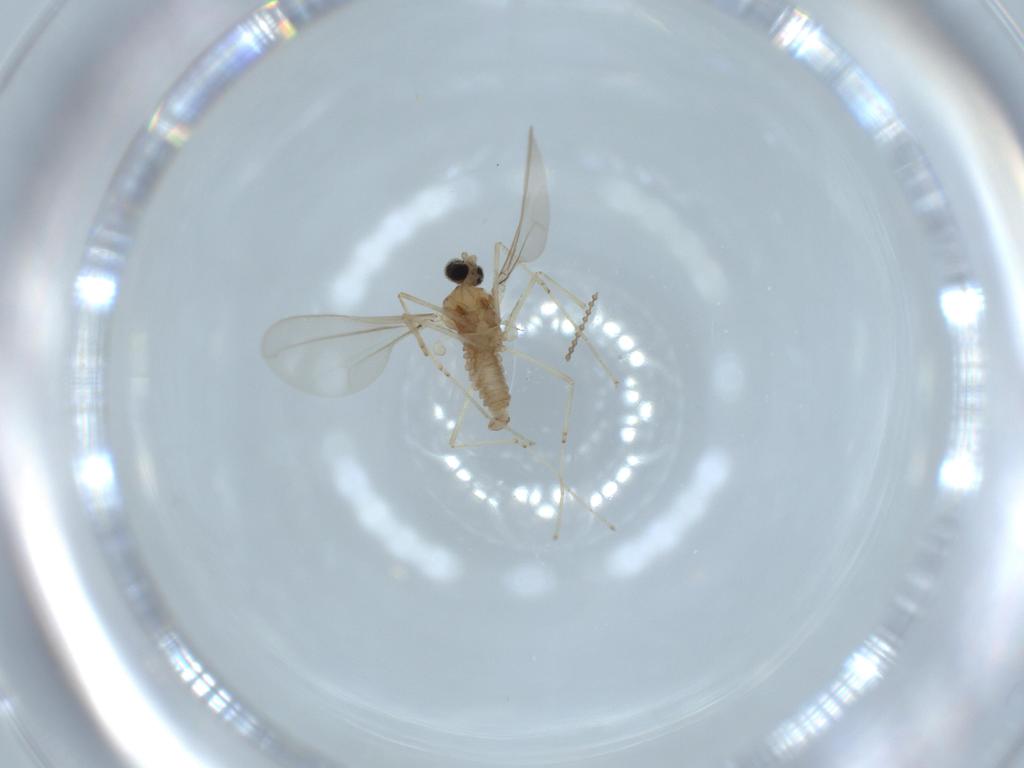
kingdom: Animalia
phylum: Arthropoda
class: Insecta
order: Diptera
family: Cecidomyiidae
